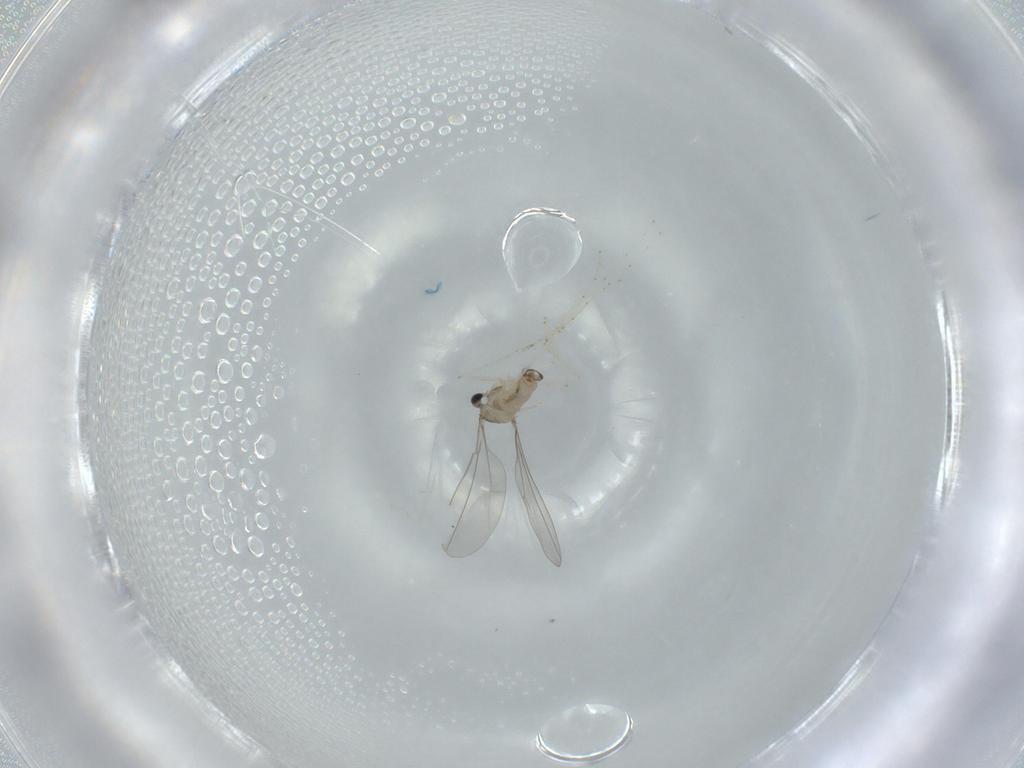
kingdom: Animalia
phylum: Arthropoda
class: Insecta
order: Diptera
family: Cecidomyiidae
